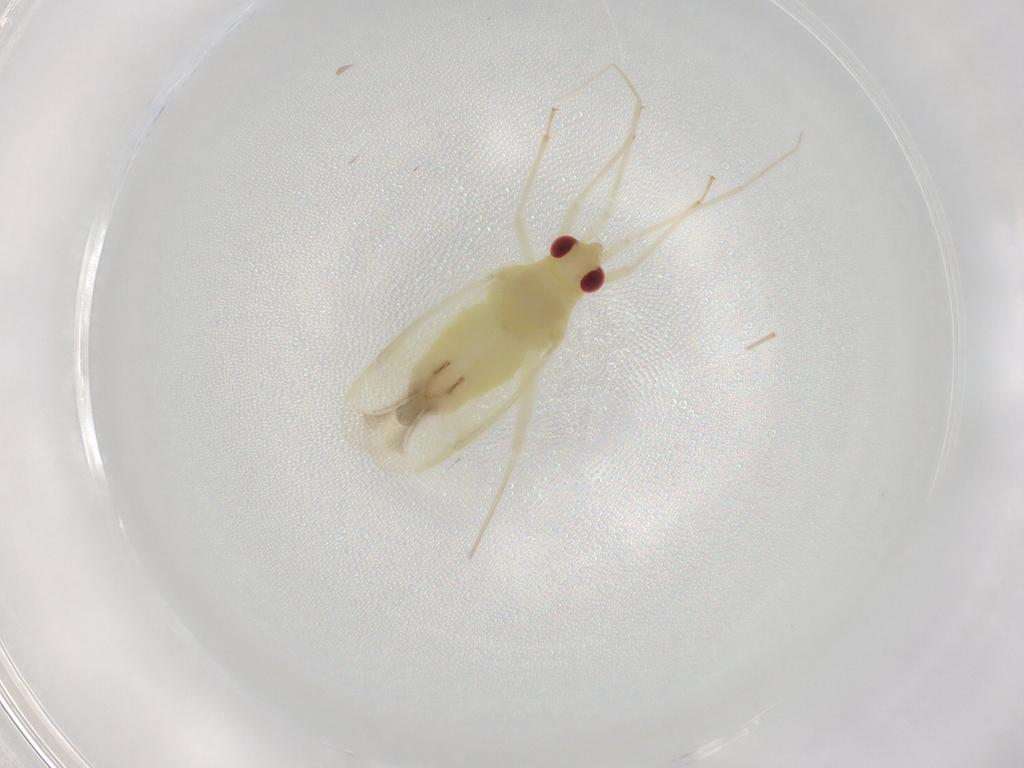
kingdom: Animalia
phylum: Arthropoda
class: Insecta
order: Hemiptera
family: Miridae
